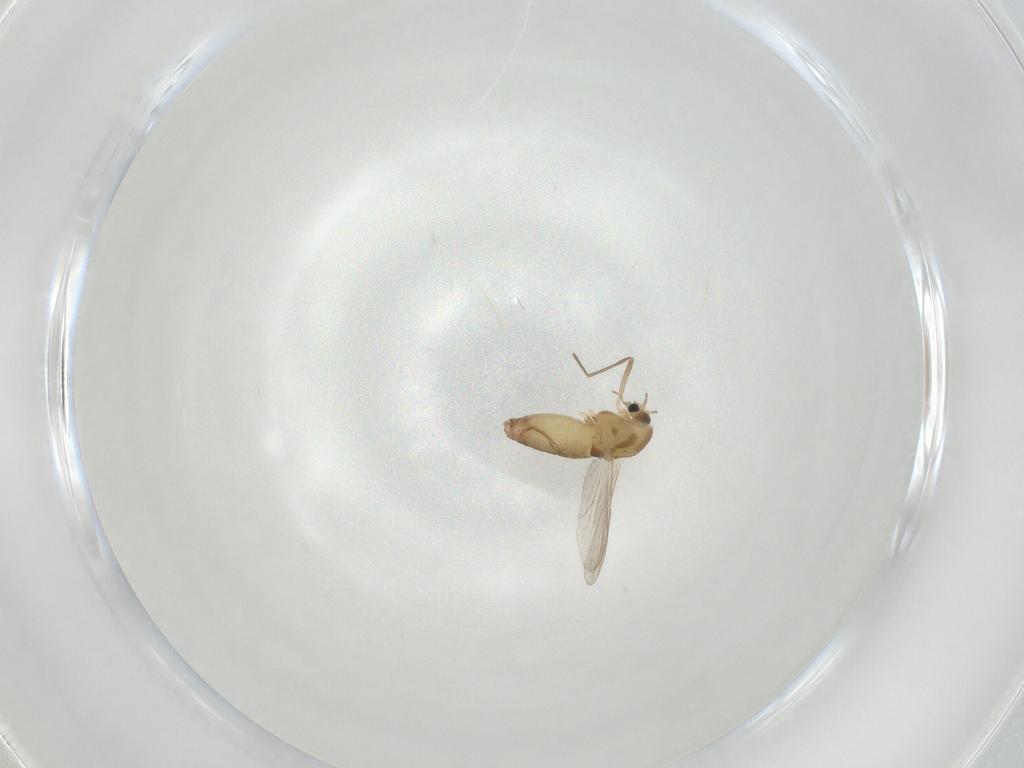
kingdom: Animalia
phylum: Arthropoda
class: Insecta
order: Diptera
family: Chironomidae
